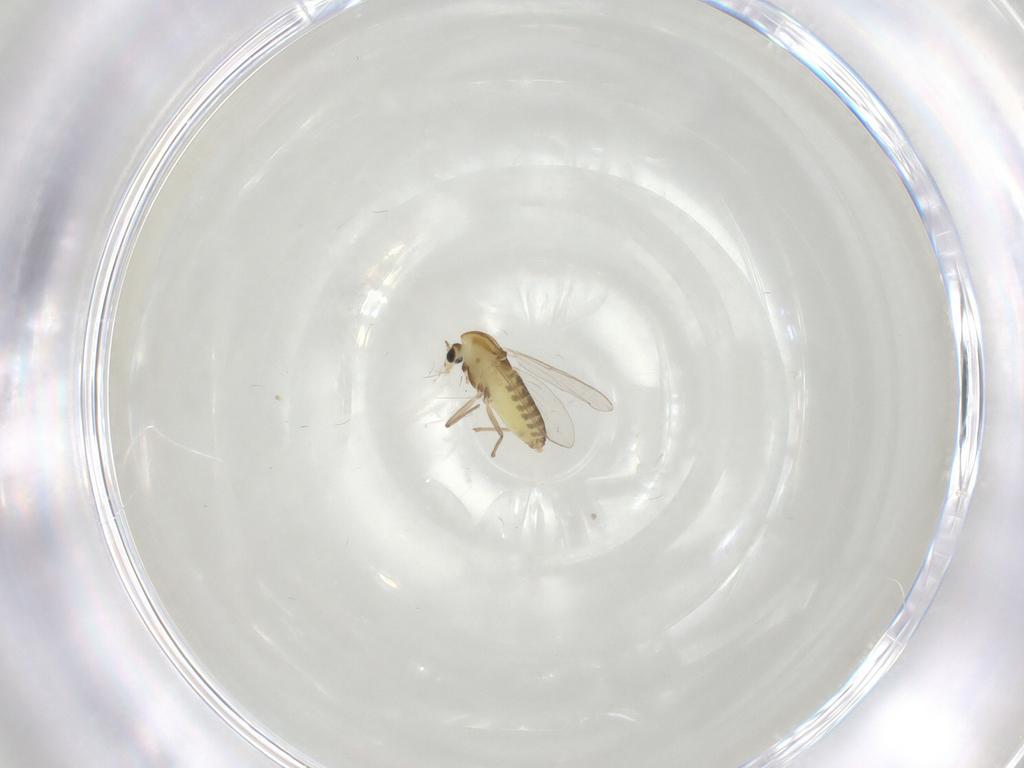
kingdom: Animalia
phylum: Arthropoda
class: Insecta
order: Diptera
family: Chironomidae
